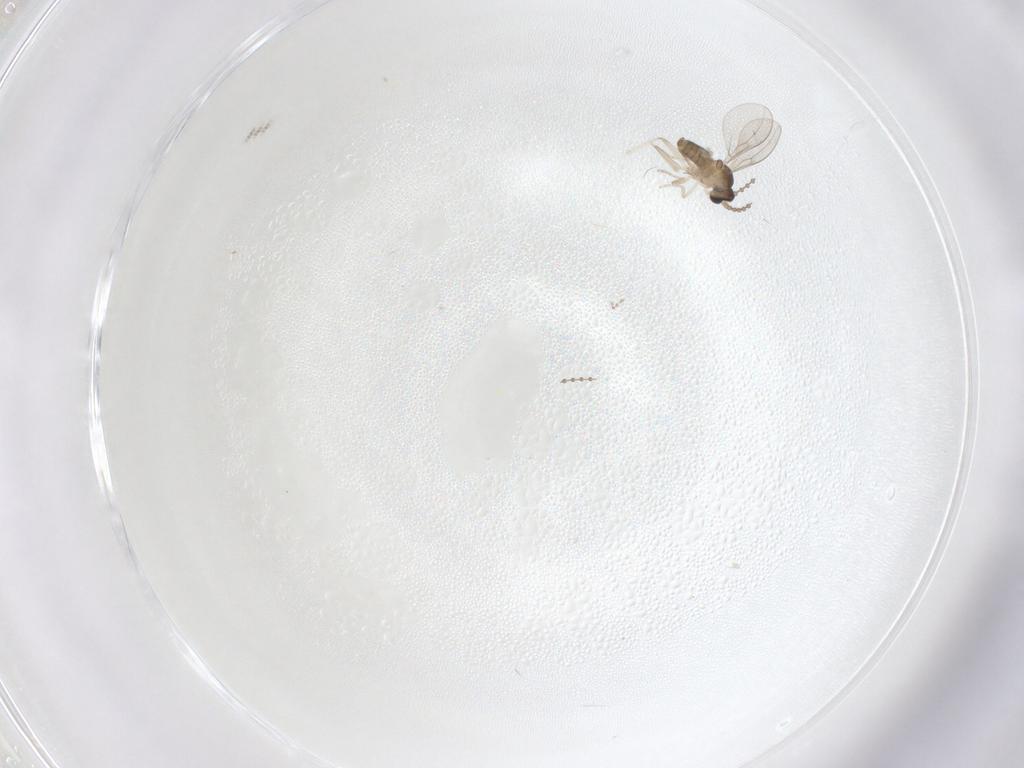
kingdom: Animalia
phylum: Arthropoda
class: Insecta
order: Diptera
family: Cecidomyiidae
